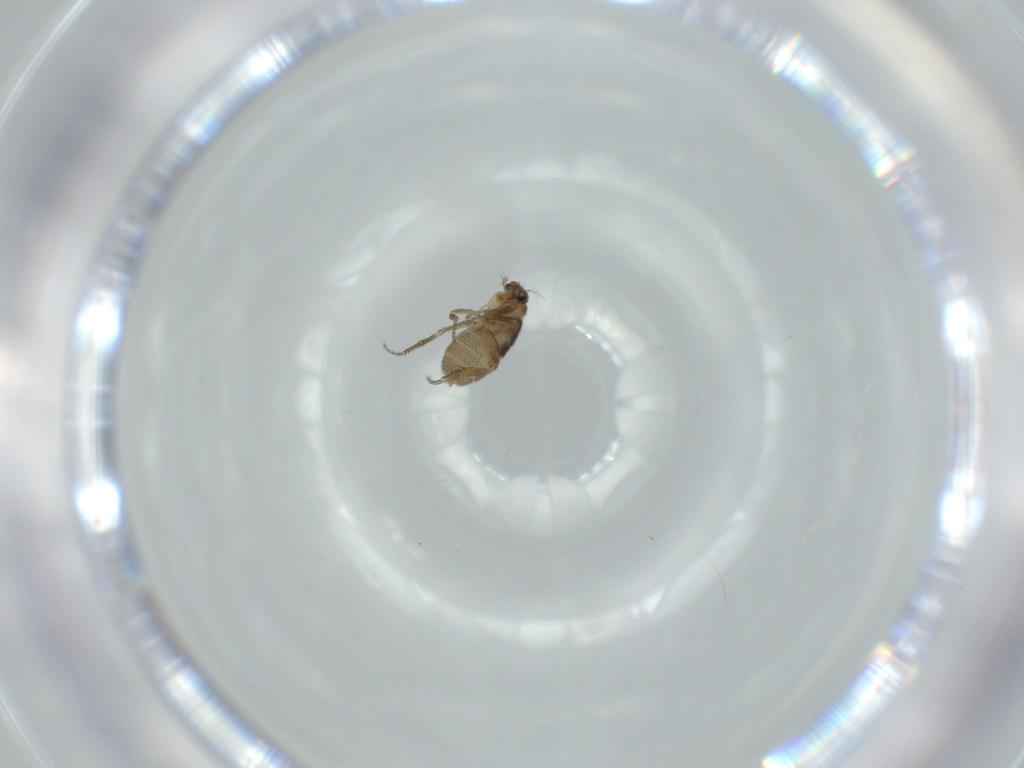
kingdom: Animalia
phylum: Arthropoda
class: Insecta
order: Diptera
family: Phoridae
